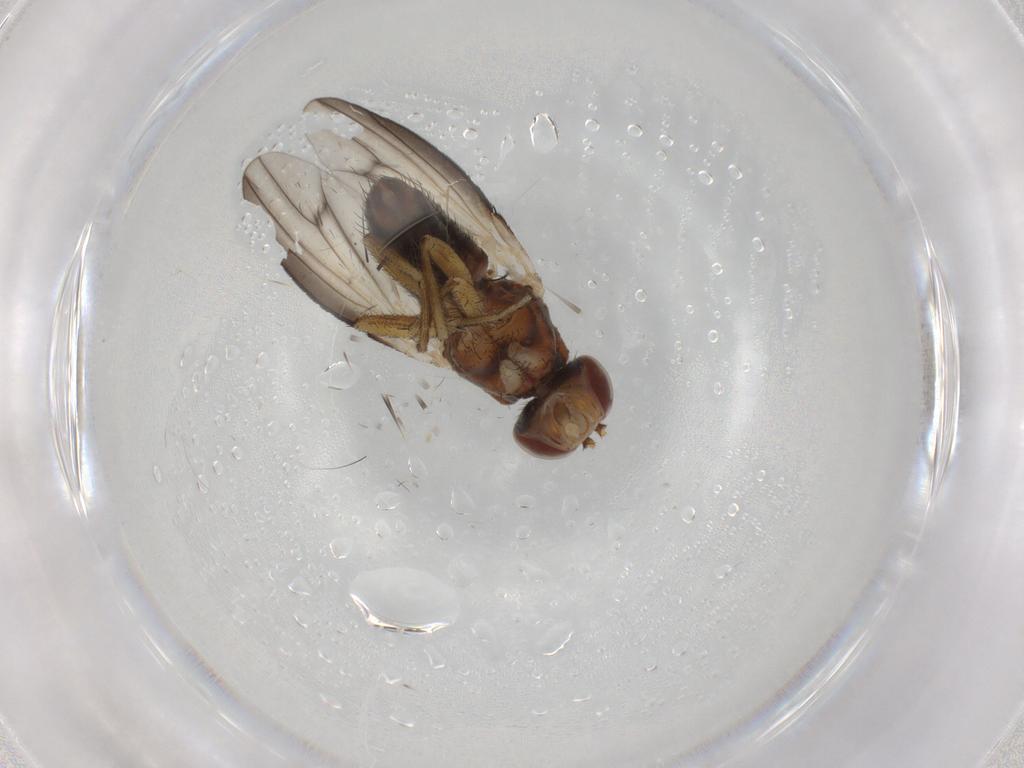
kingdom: Animalia
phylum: Arthropoda
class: Insecta
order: Diptera
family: Heleomyzidae
